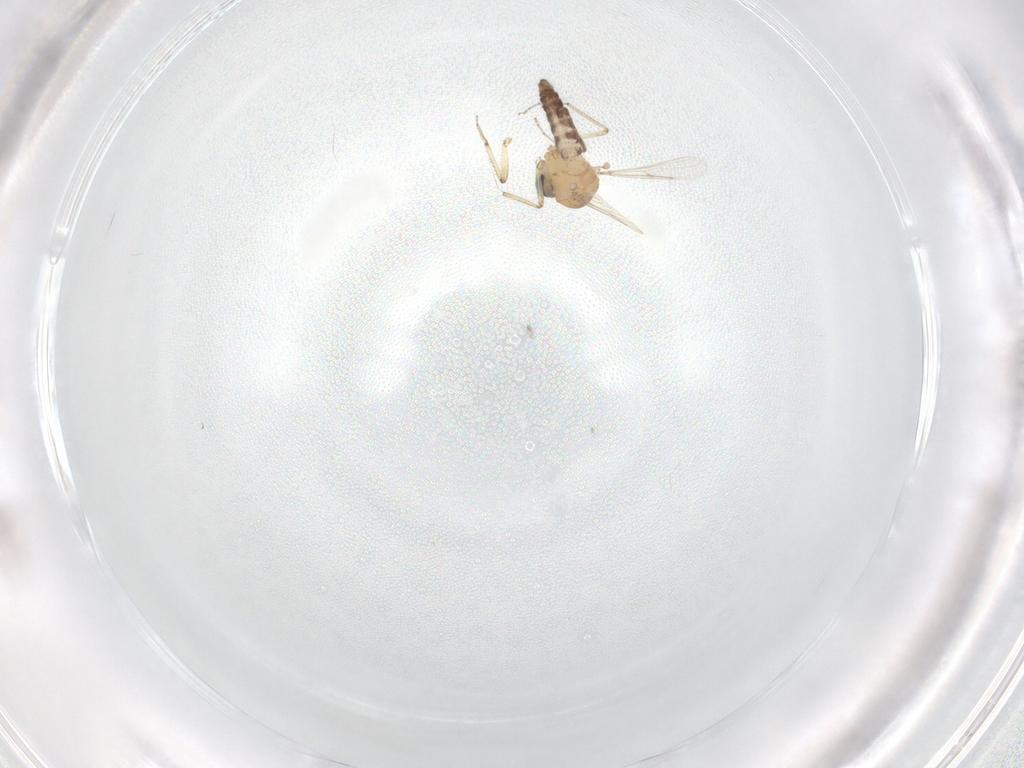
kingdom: Animalia
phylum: Arthropoda
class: Insecta
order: Diptera
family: Ceratopogonidae
